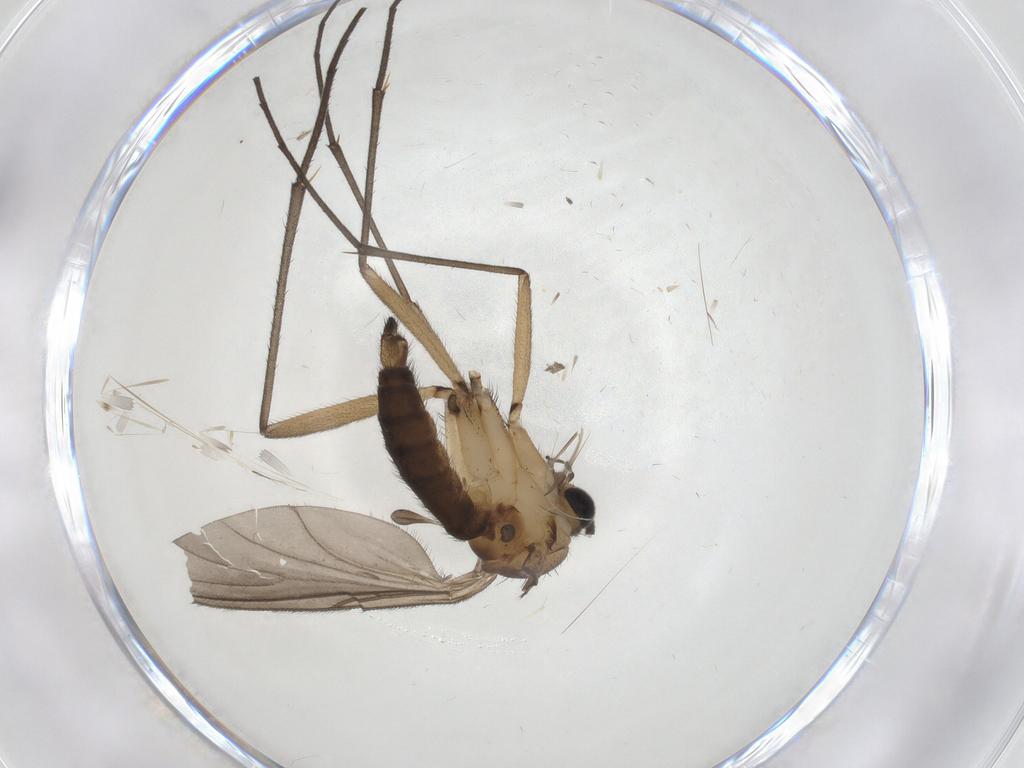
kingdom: Animalia
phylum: Arthropoda
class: Insecta
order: Diptera
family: Sciaridae
